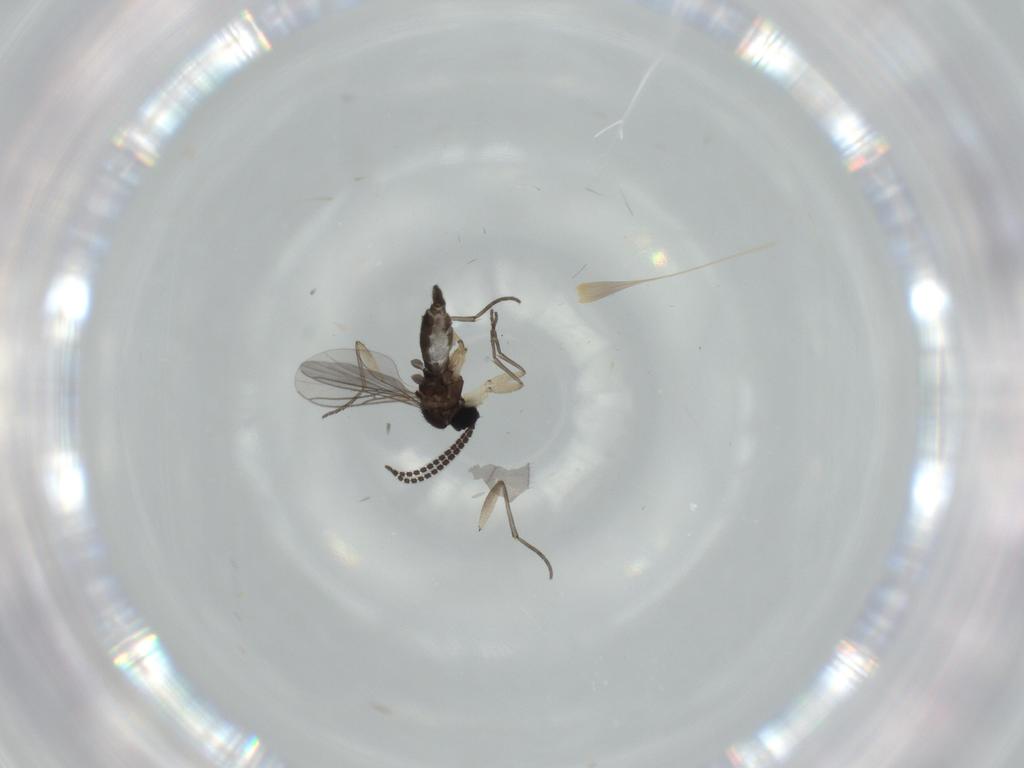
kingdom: Animalia
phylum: Arthropoda
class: Insecta
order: Diptera
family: Sciaridae
